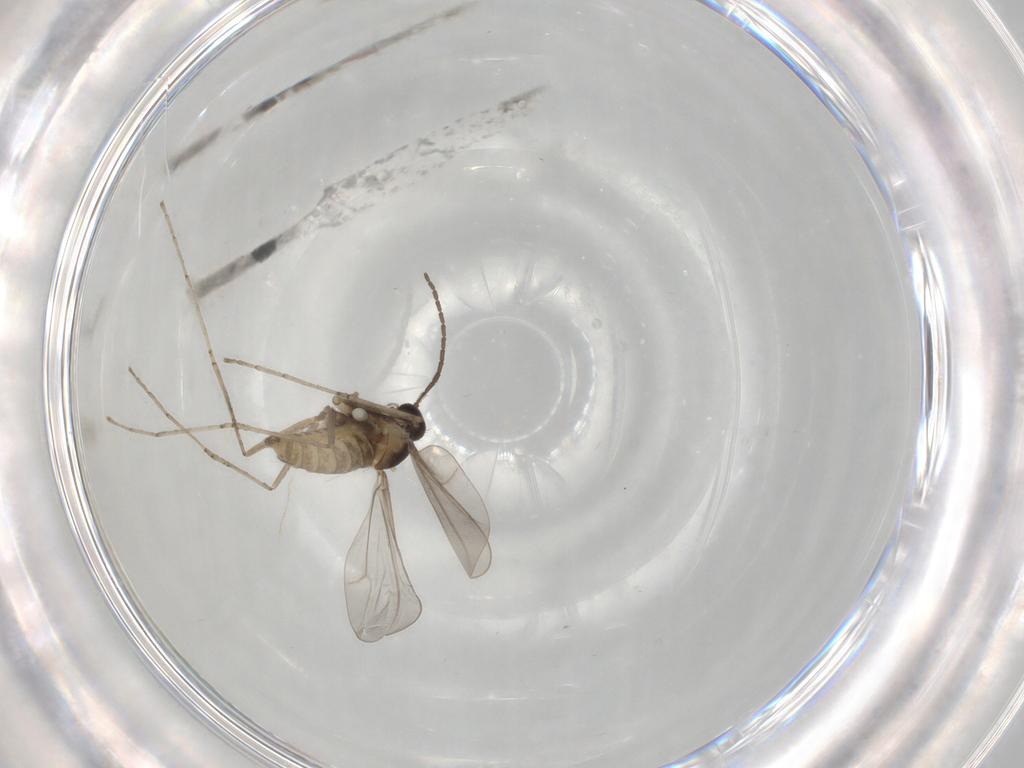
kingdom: Animalia
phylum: Arthropoda
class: Insecta
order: Diptera
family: Cecidomyiidae
